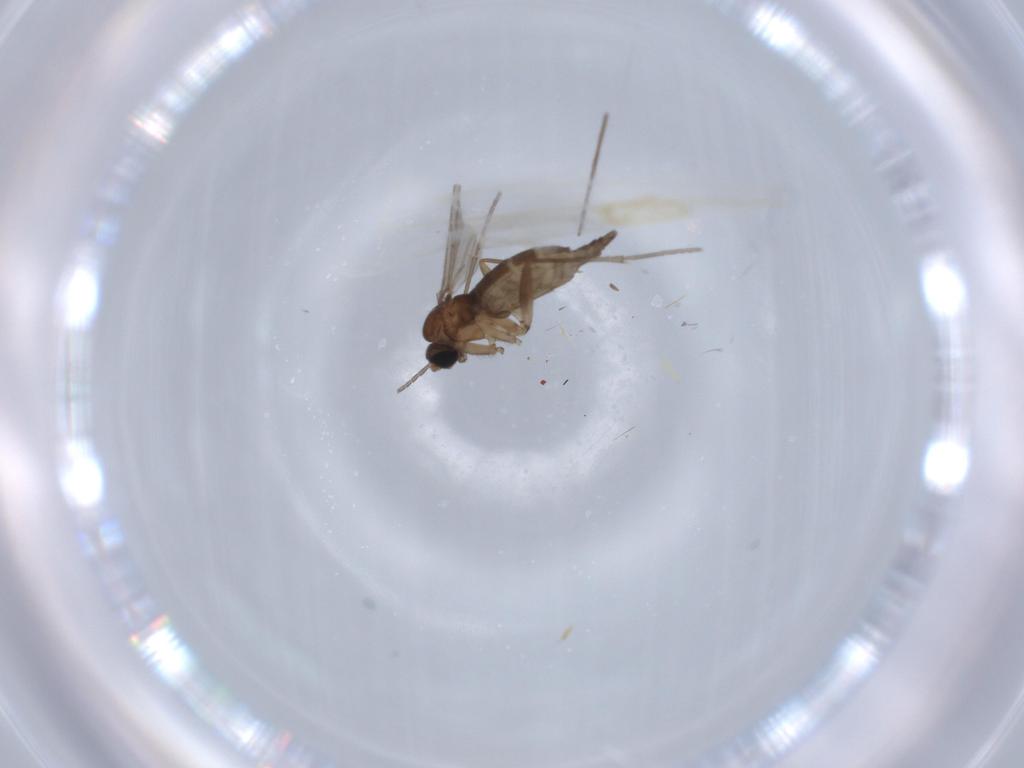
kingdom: Animalia
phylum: Arthropoda
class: Insecta
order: Diptera
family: Sciaridae
